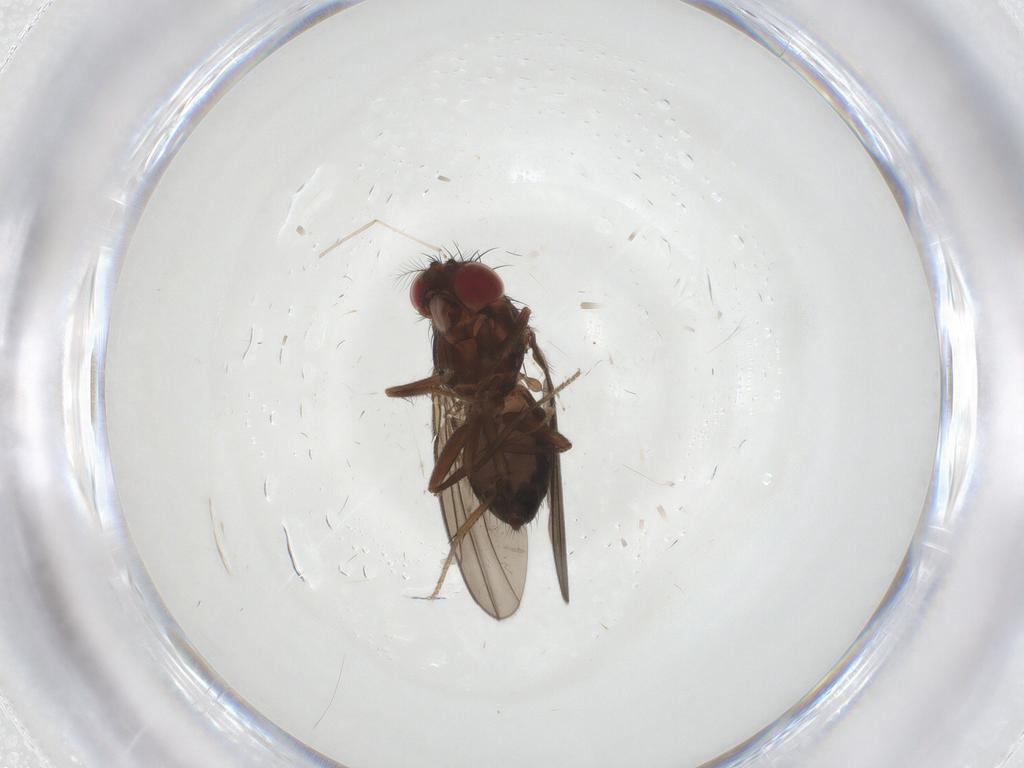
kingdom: Animalia
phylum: Arthropoda
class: Insecta
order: Diptera
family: Drosophilidae
